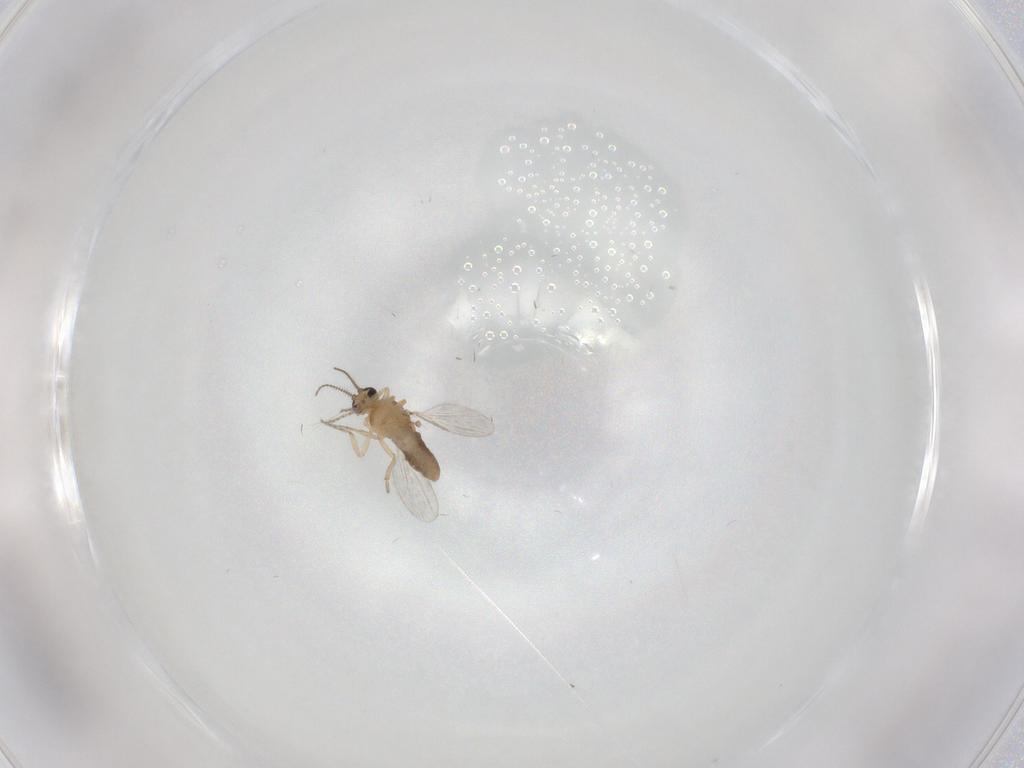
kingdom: Animalia
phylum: Arthropoda
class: Insecta
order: Diptera
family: Ceratopogonidae
